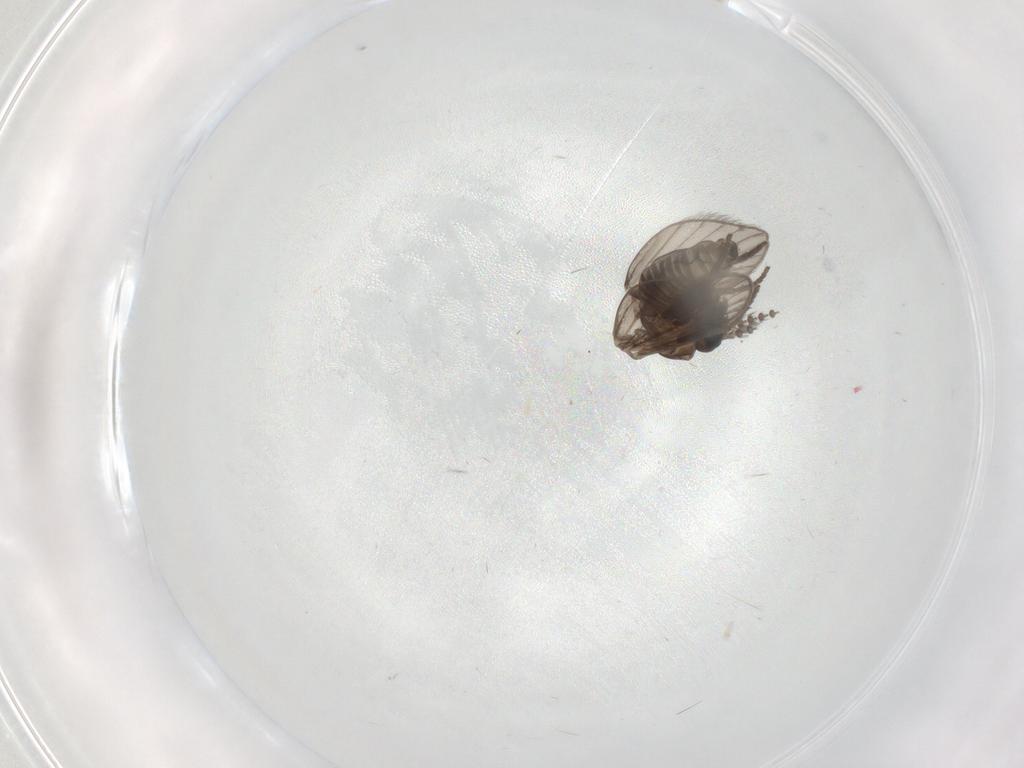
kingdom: Animalia
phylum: Arthropoda
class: Insecta
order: Diptera
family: Psychodidae
